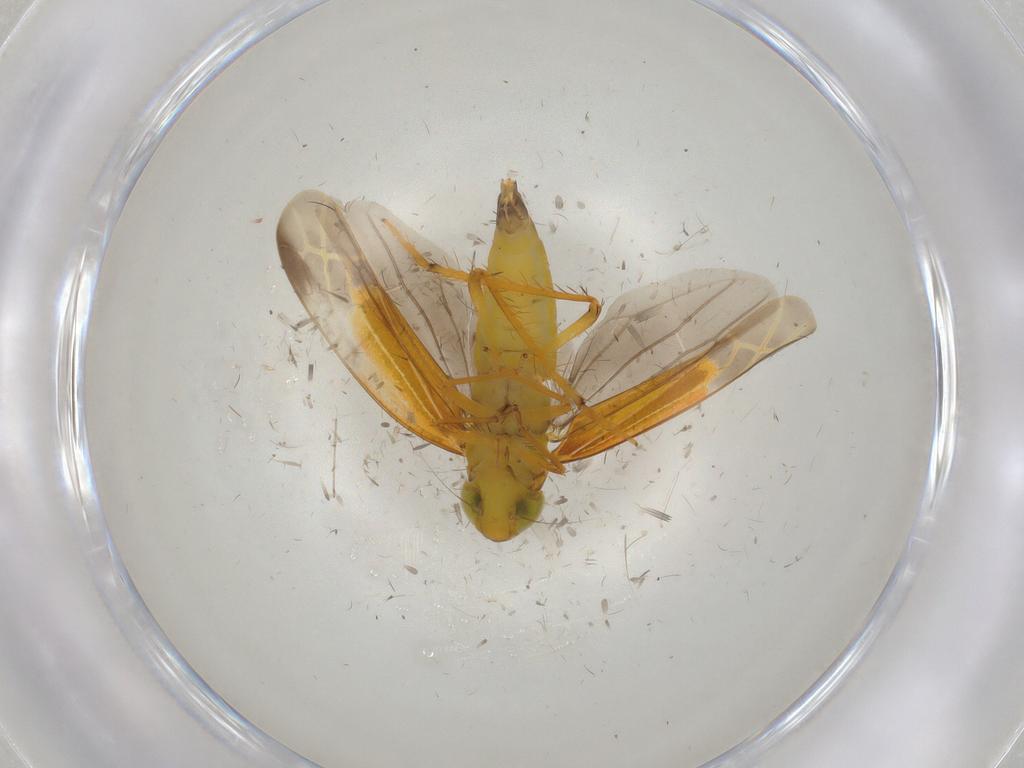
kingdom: Animalia
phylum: Arthropoda
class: Insecta
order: Hemiptera
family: Cicadellidae
